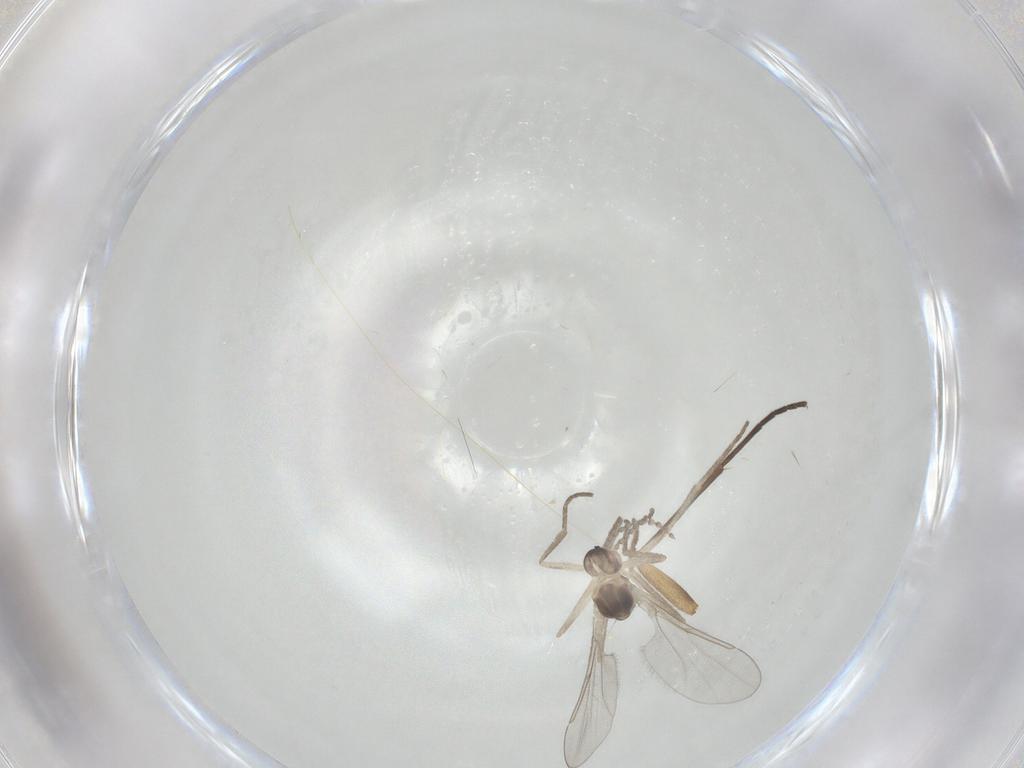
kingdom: Animalia
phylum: Arthropoda
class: Insecta
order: Diptera
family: Cecidomyiidae
